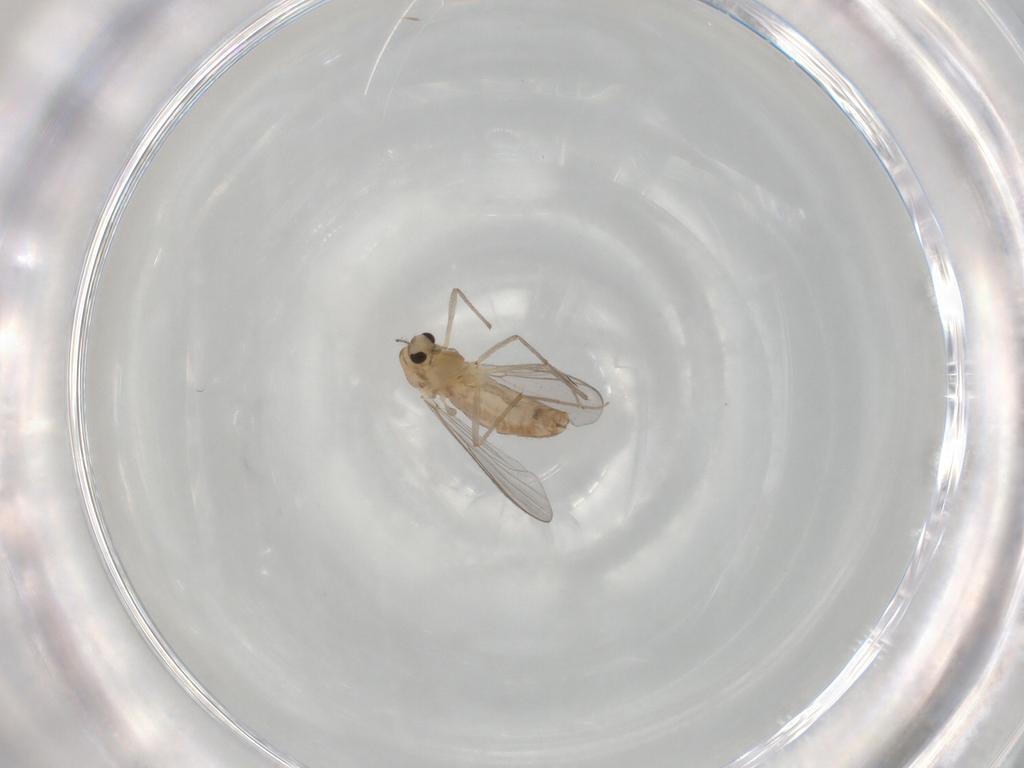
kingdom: Animalia
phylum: Arthropoda
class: Insecta
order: Diptera
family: Chironomidae
